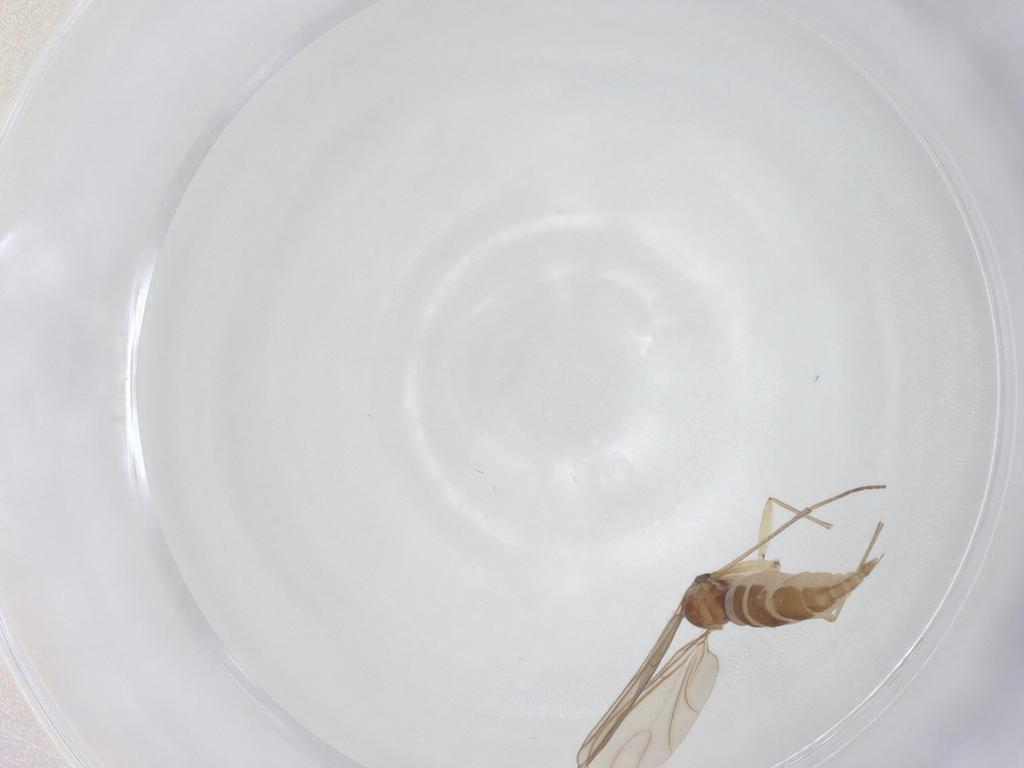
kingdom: Animalia
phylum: Arthropoda
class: Insecta
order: Diptera
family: Sciaridae
